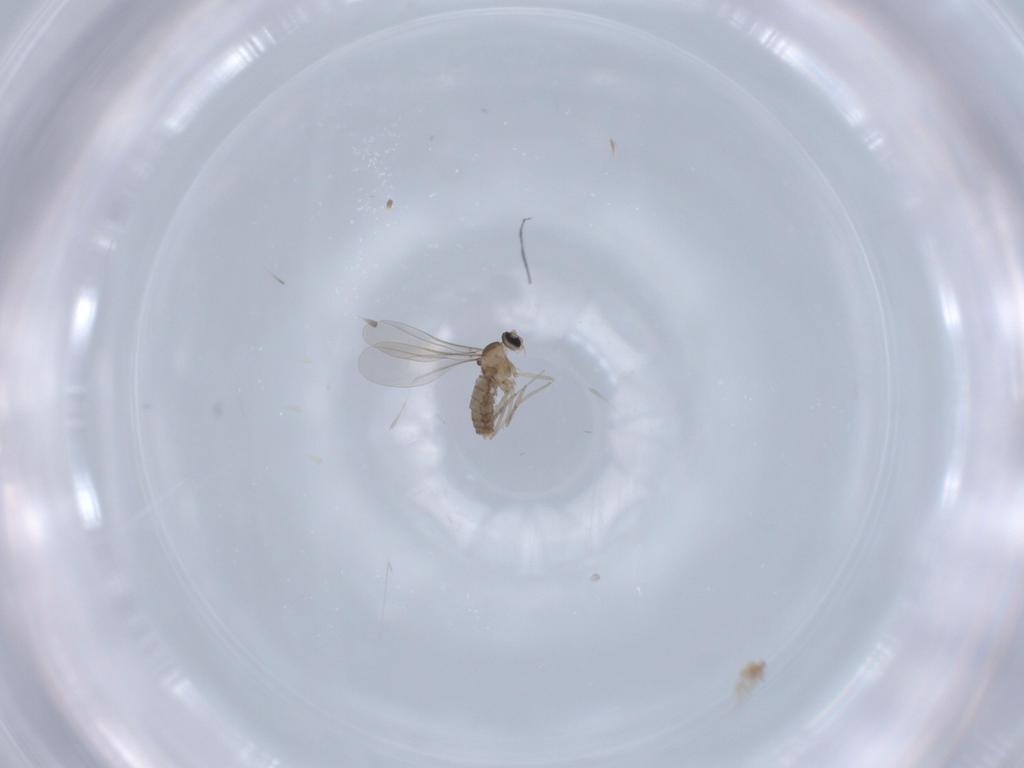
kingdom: Animalia
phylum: Arthropoda
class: Insecta
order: Diptera
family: Cecidomyiidae
